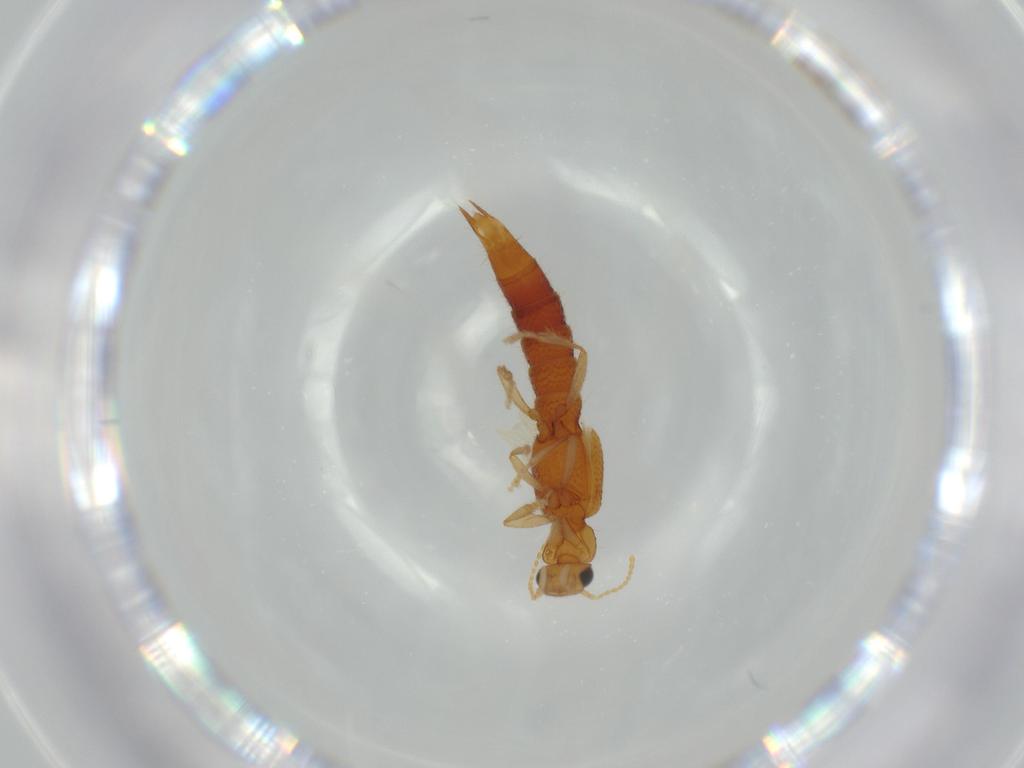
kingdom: Animalia
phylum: Arthropoda
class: Insecta
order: Coleoptera
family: Staphylinidae
